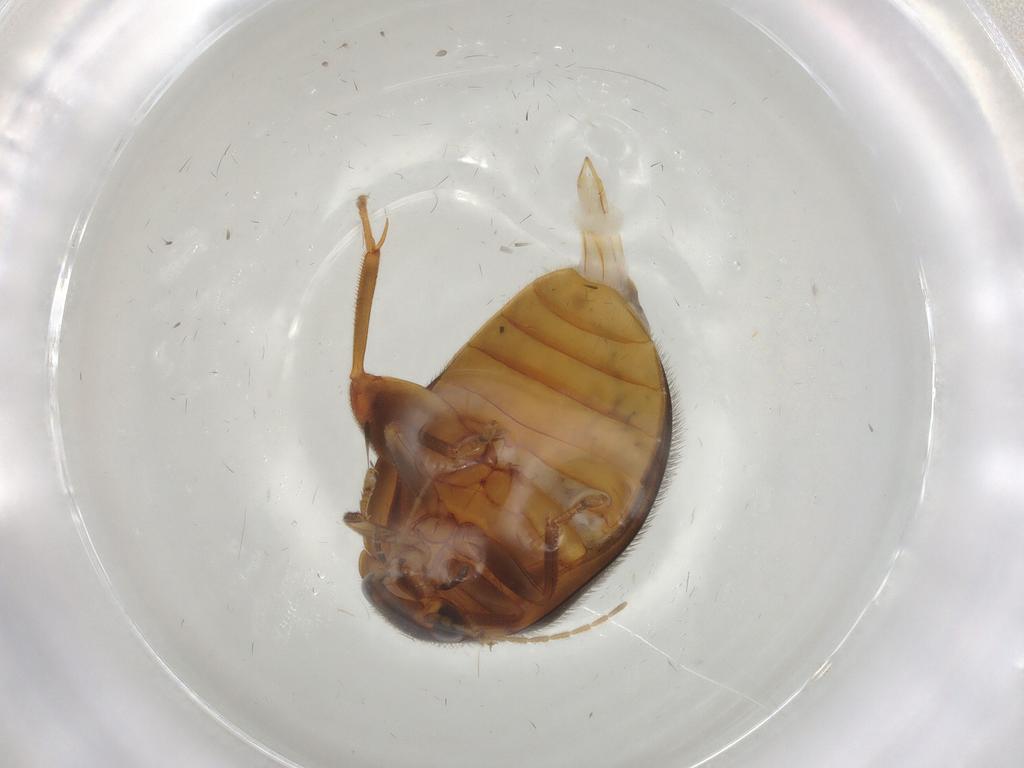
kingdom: Animalia
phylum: Arthropoda
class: Insecta
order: Coleoptera
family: Scirtidae
